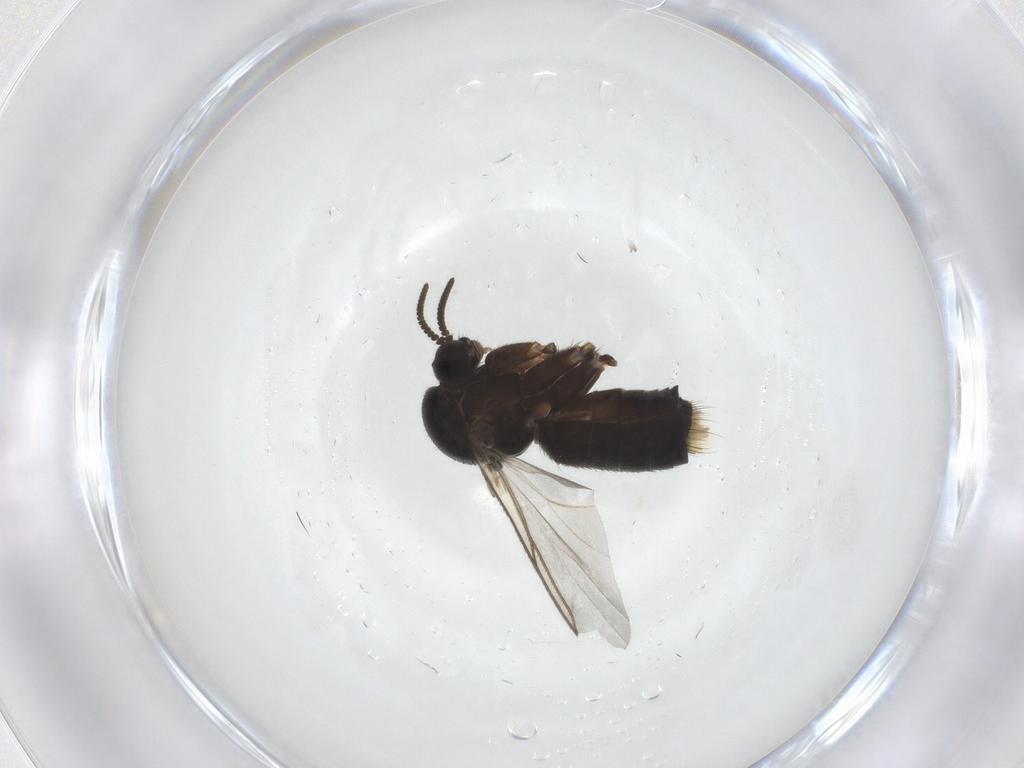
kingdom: Animalia
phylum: Arthropoda
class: Insecta
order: Diptera
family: Mycetophilidae
